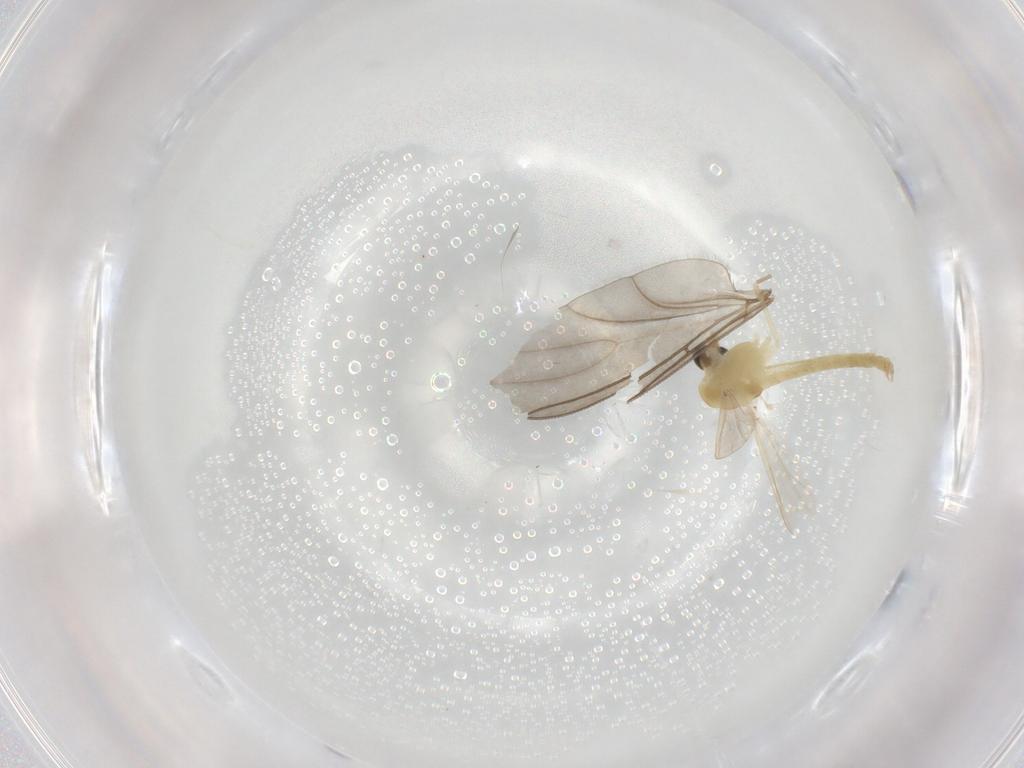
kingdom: Animalia
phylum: Arthropoda
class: Insecta
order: Diptera
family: Chironomidae
